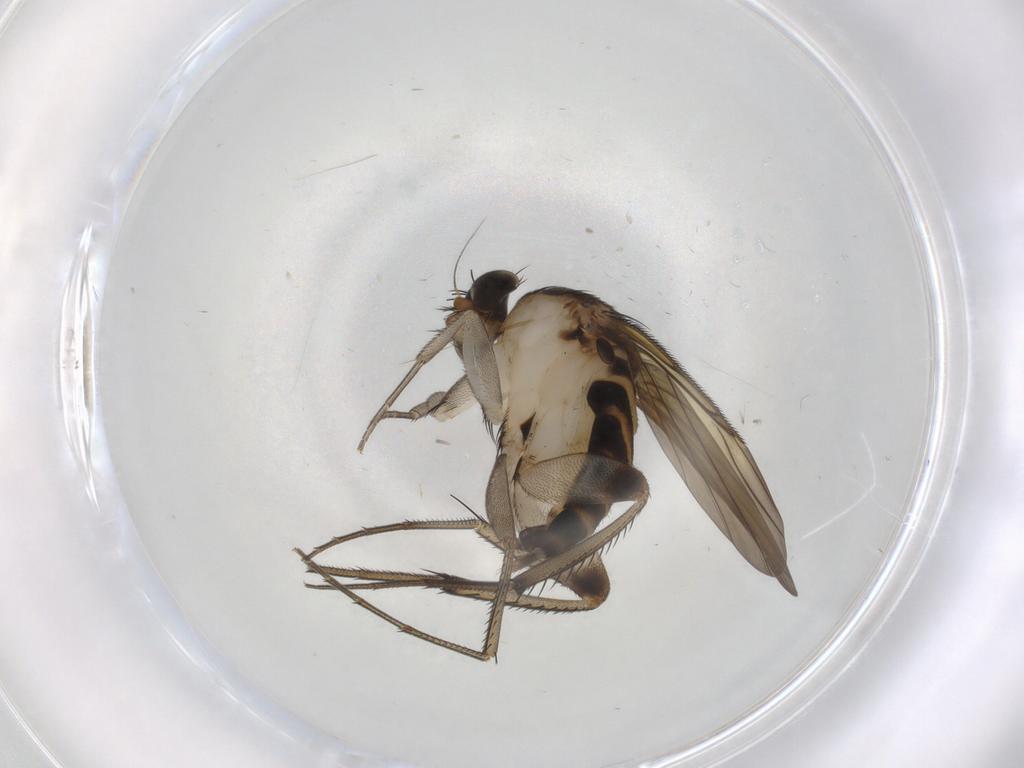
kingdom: Animalia
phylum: Arthropoda
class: Insecta
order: Diptera
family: Phoridae
